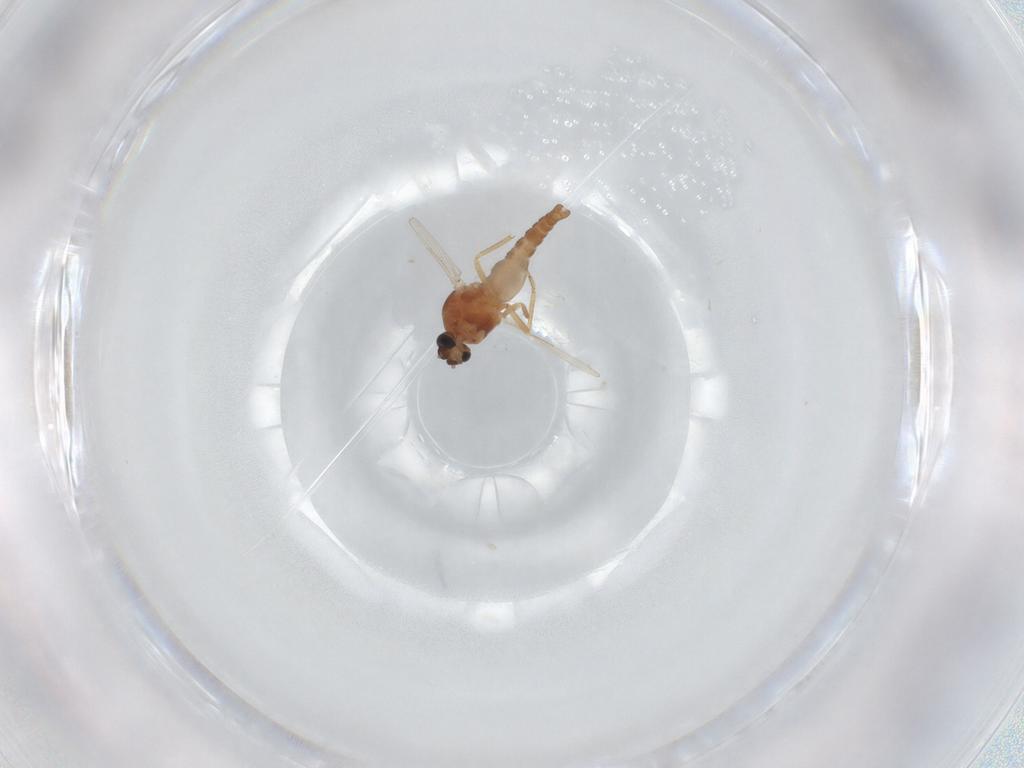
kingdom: Animalia
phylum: Arthropoda
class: Insecta
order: Diptera
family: Ceratopogonidae
